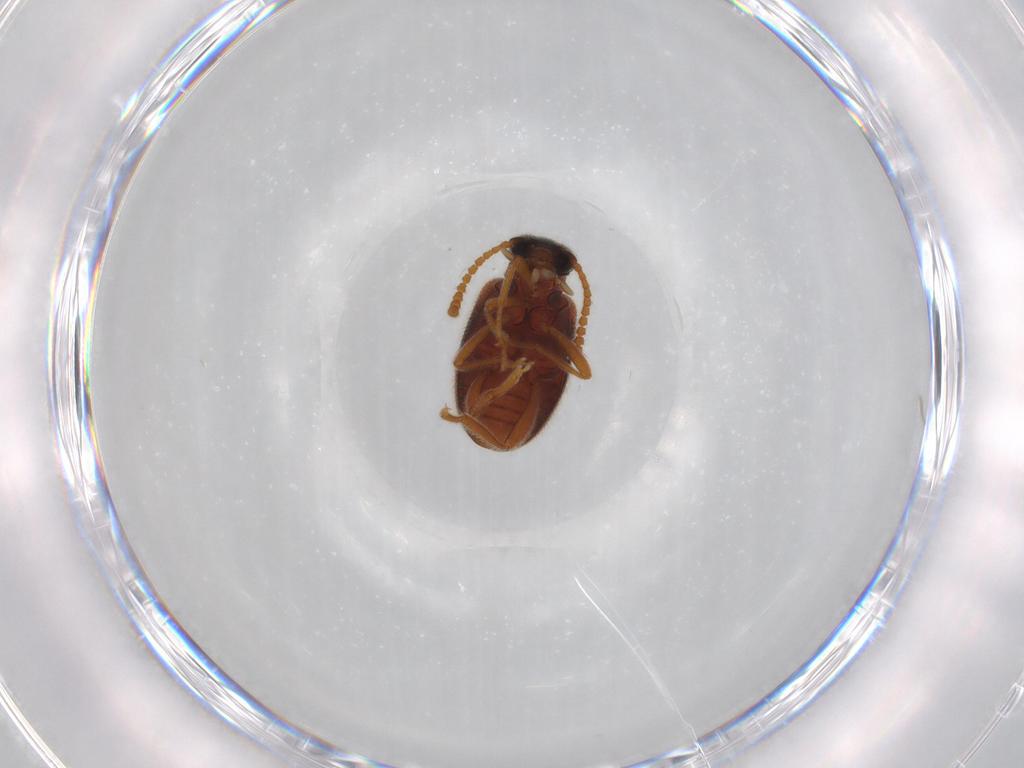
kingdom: Animalia
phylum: Arthropoda
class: Insecta
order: Coleoptera
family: Aderidae
